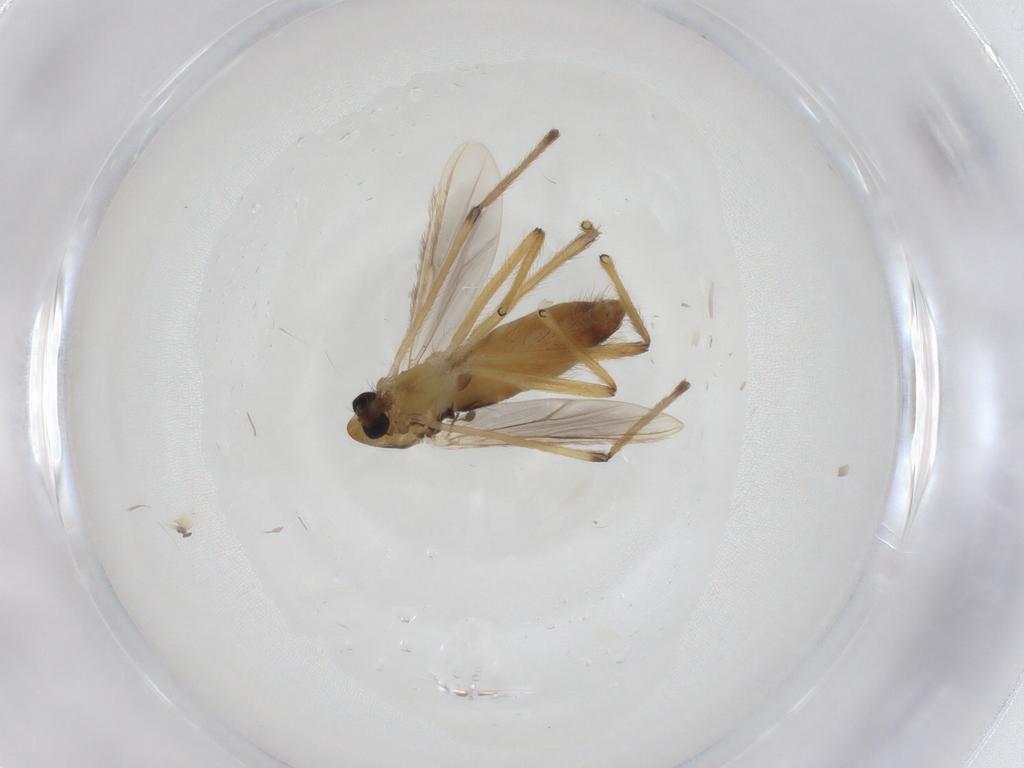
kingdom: Animalia
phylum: Arthropoda
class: Insecta
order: Diptera
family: Chironomidae
